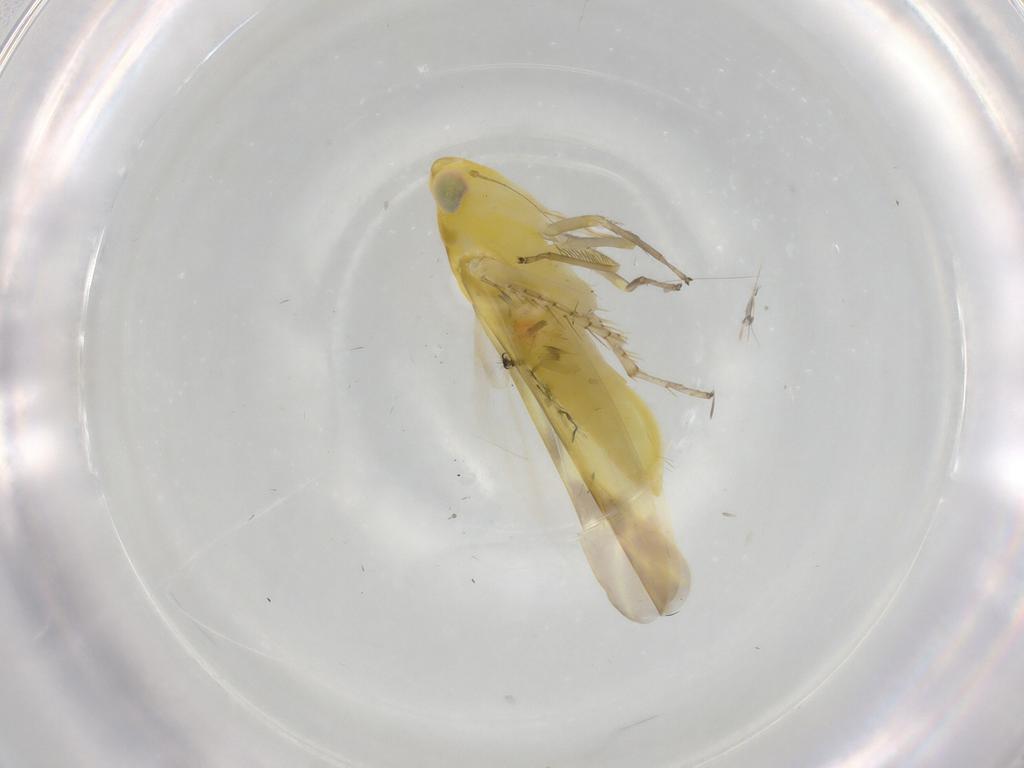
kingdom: Animalia
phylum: Arthropoda
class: Insecta
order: Hemiptera
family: Cicadellidae
